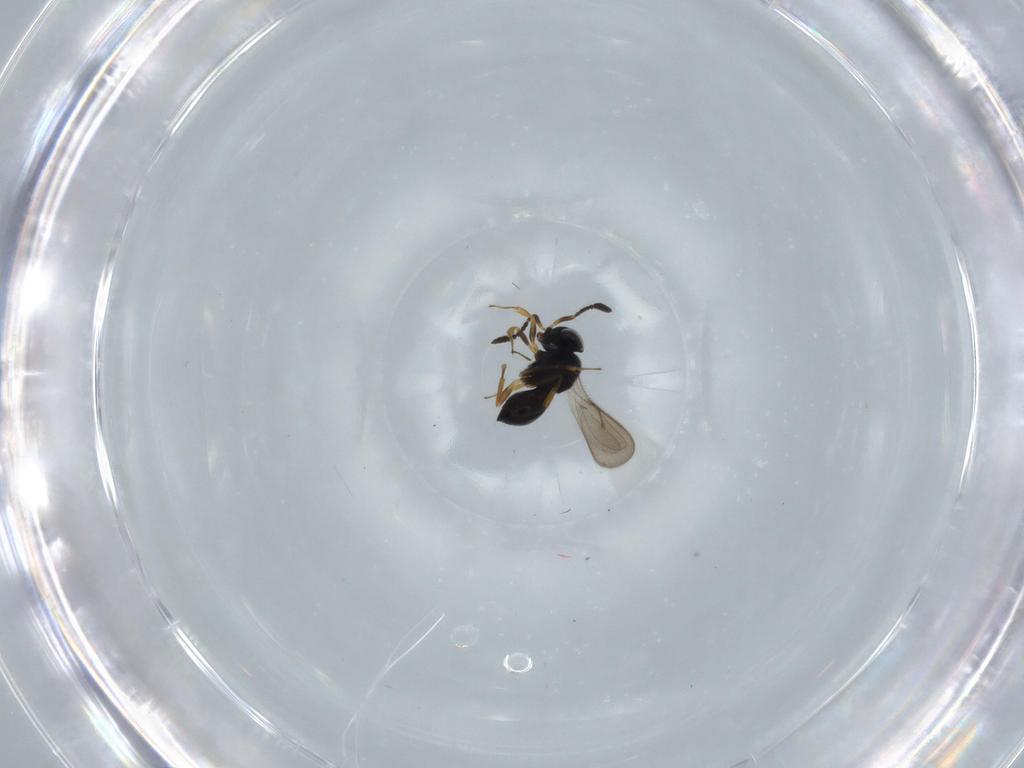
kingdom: Animalia
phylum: Arthropoda
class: Insecta
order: Hymenoptera
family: Scelionidae
